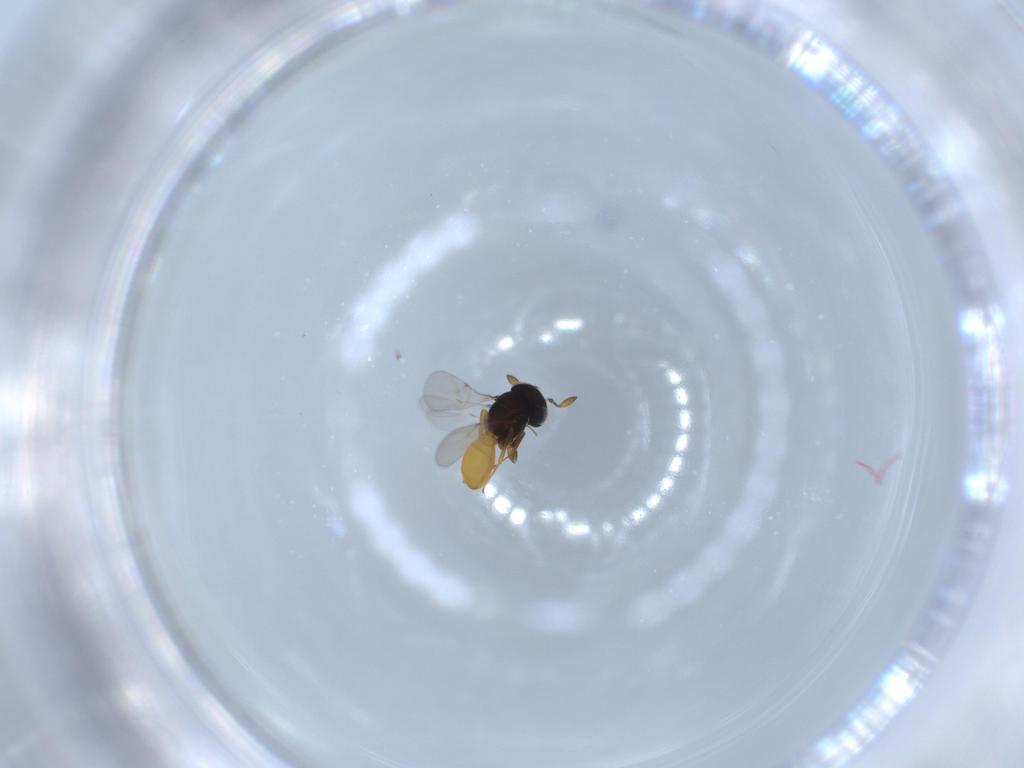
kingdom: Animalia
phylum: Arthropoda
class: Insecta
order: Hymenoptera
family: Scelionidae
